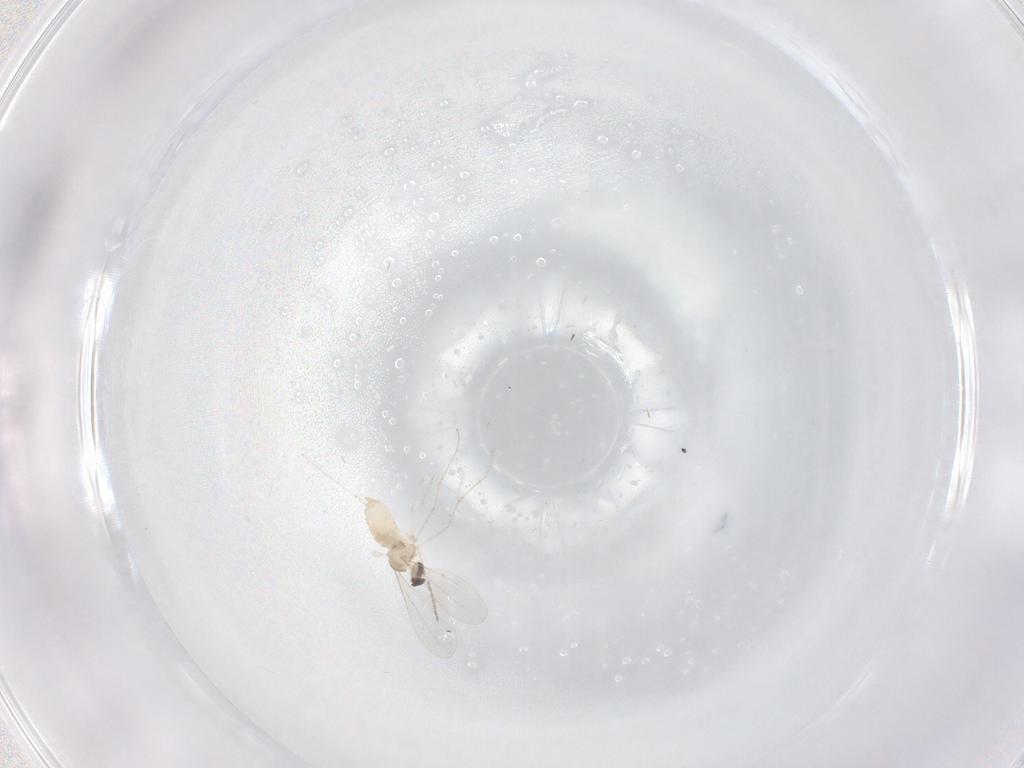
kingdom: Animalia
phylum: Arthropoda
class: Insecta
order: Diptera
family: Cecidomyiidae
